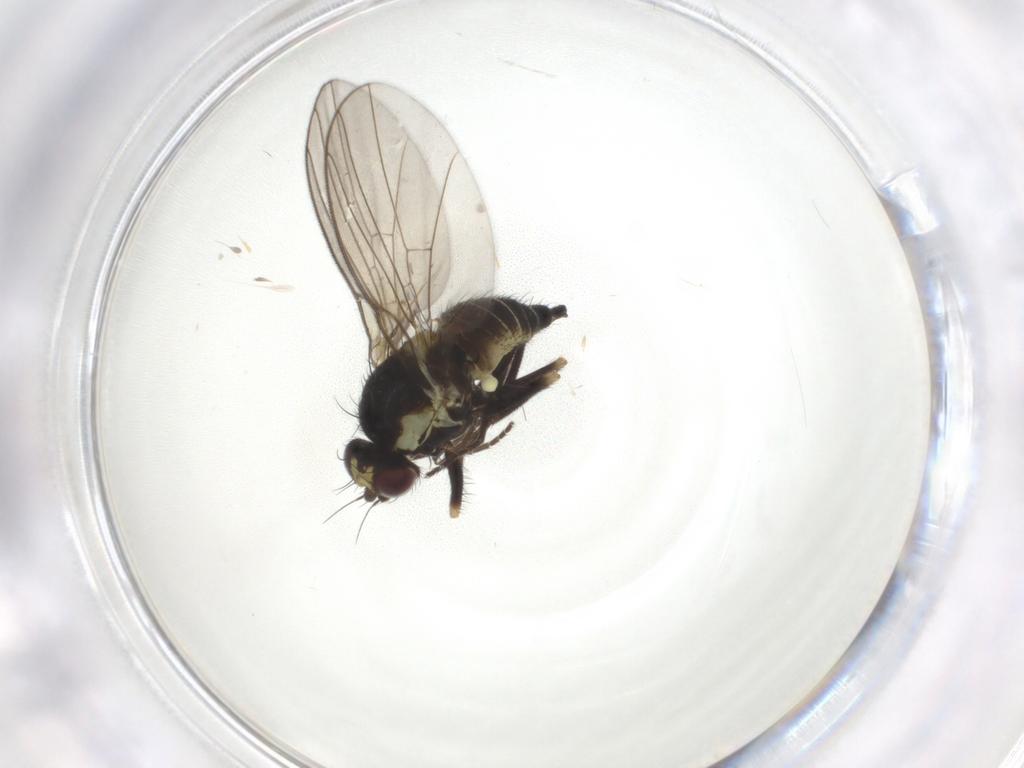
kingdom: Animalia
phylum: Arthropoda
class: Insecta
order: Diptera
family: Agromyzidae
